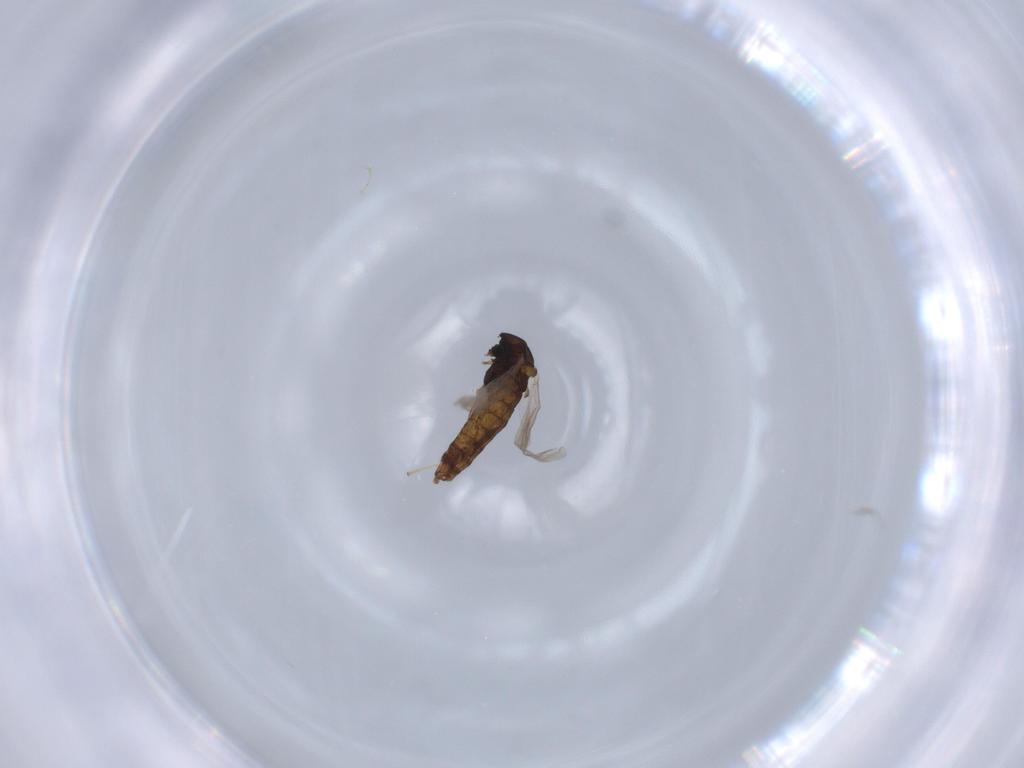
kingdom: Animalia
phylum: Arthropoda
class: Insecta
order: Diptera
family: Chironomidae
